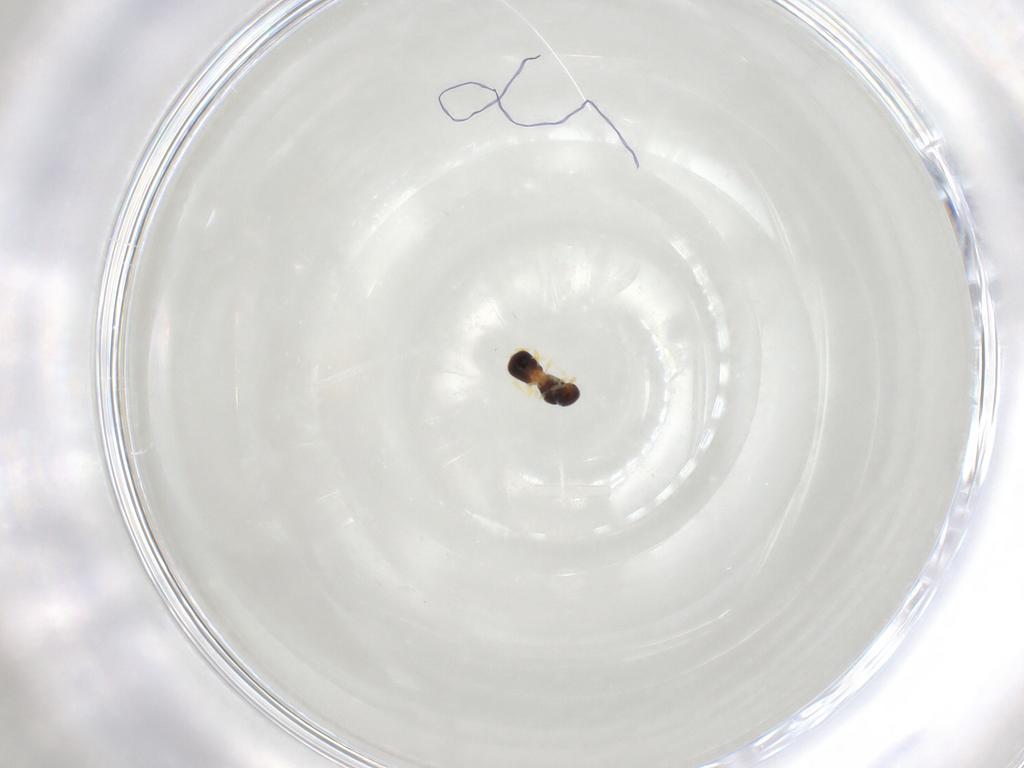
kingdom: Animalia
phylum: Arthropoda
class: Insecta
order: Hymenoptera
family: Platygastridae
